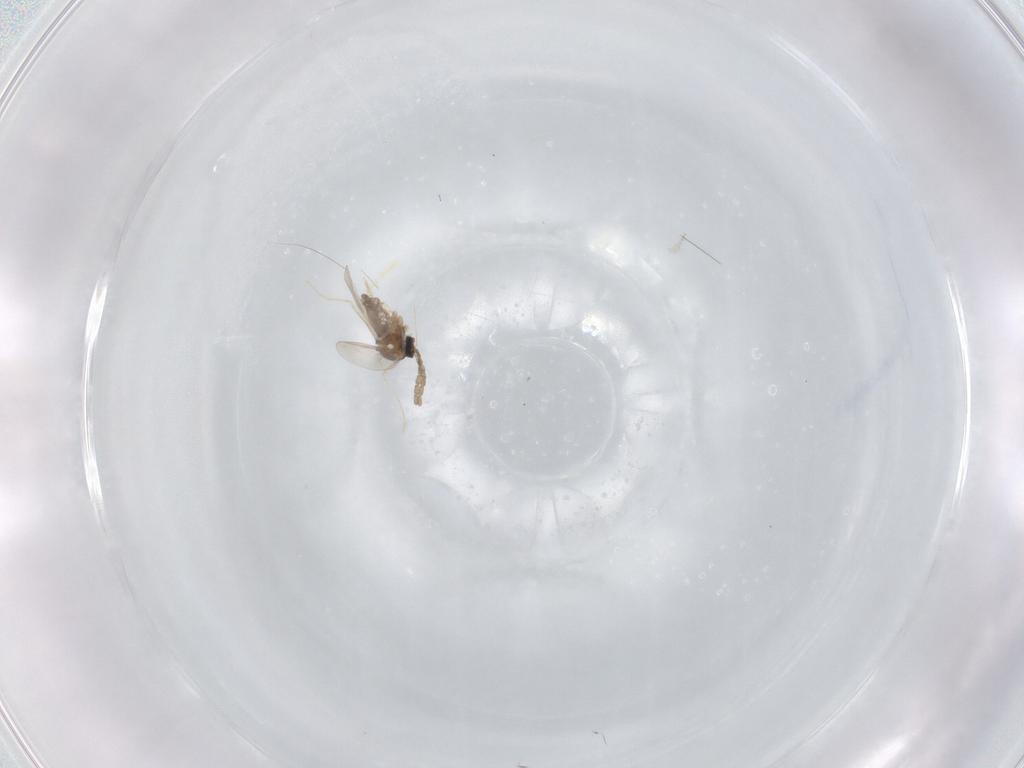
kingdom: Animalia
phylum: Arthropoda
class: Insecta
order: Diptera
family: Cecidomyiidae
